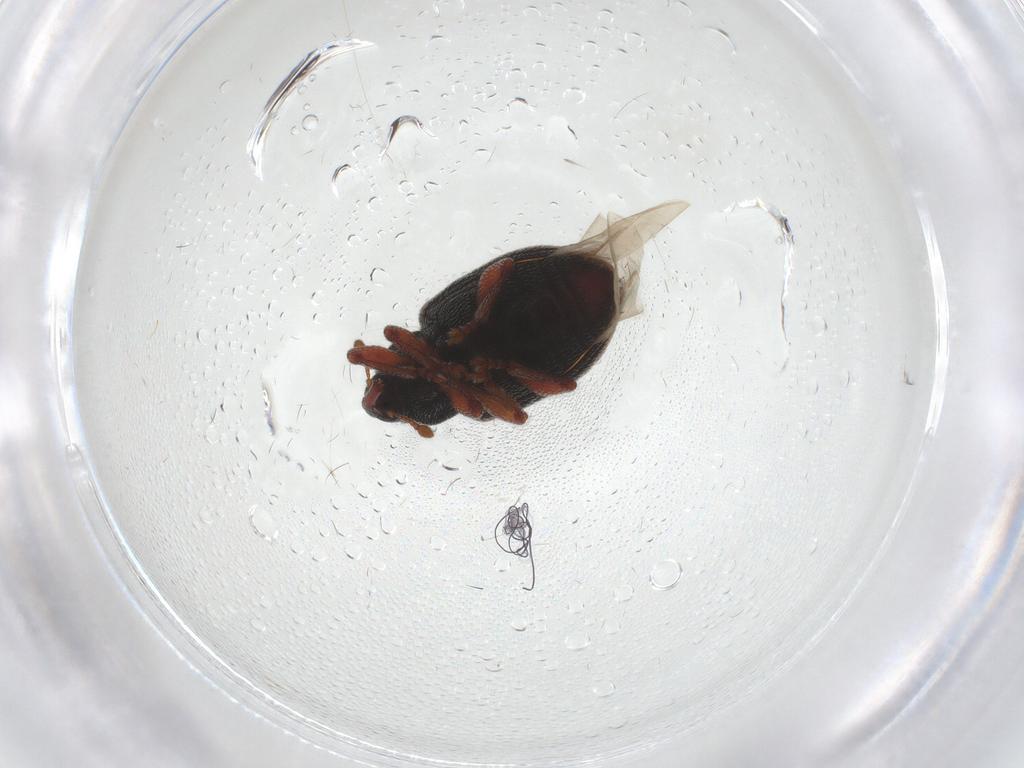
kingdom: Animalia
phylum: Arthropoda
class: Insecta
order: Coleoptera
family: Curculionidae
